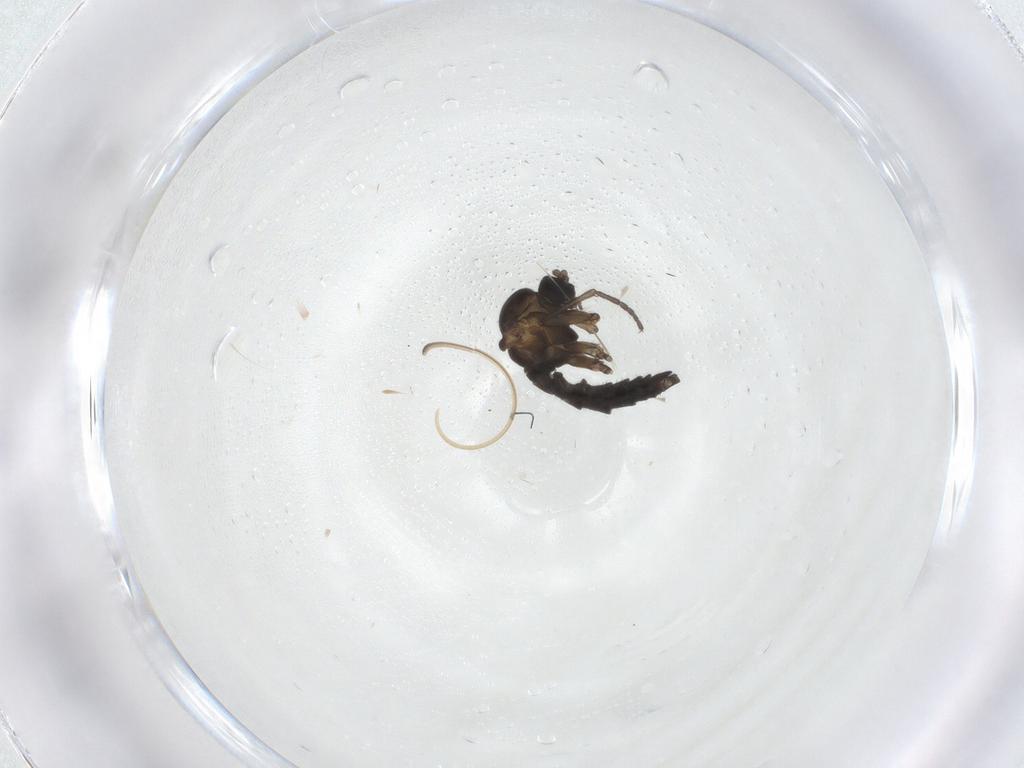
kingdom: Animalia
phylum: Arthropoda
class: Insecta
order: Diptera
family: Sciaridae
